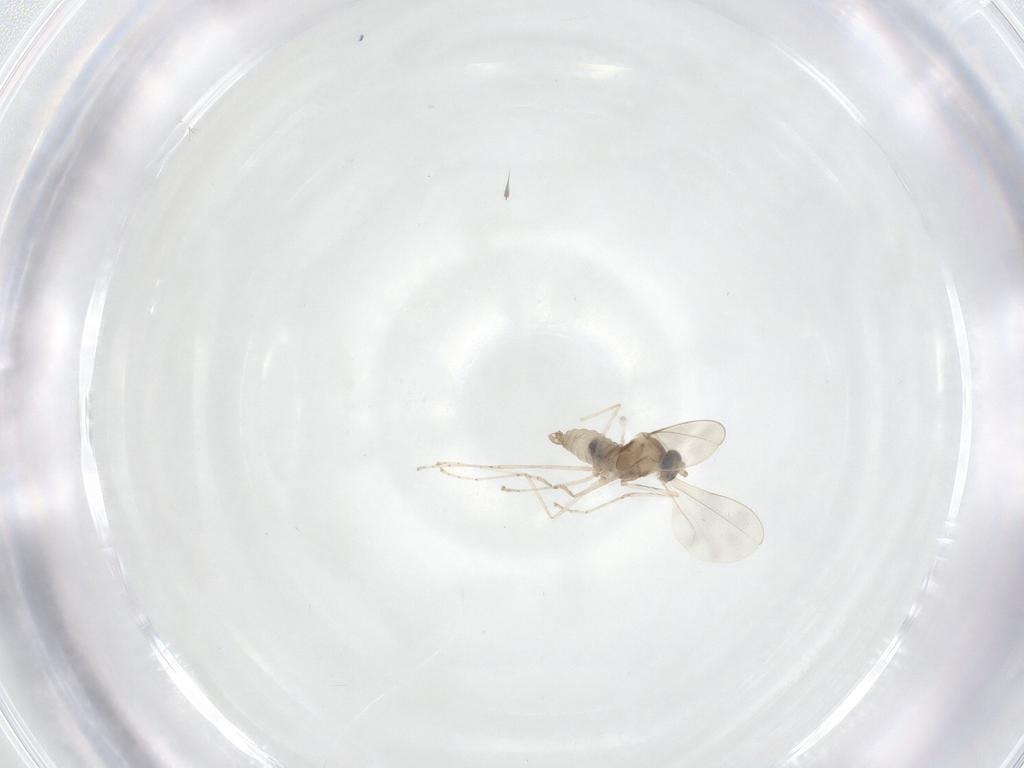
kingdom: Animalia
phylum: Arthropoda
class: Insecta
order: Diptera
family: Cecidomyiidae
